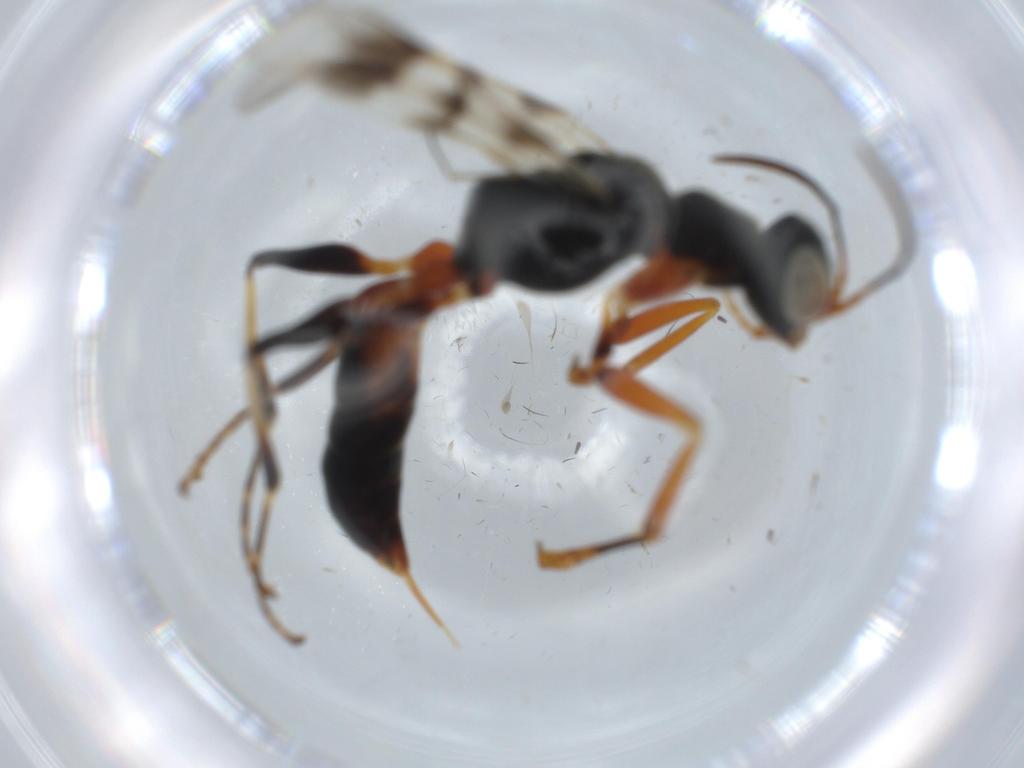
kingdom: Animalia
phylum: Arthropoda
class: Insecta
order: Hymenoptera
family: Dryinidae
